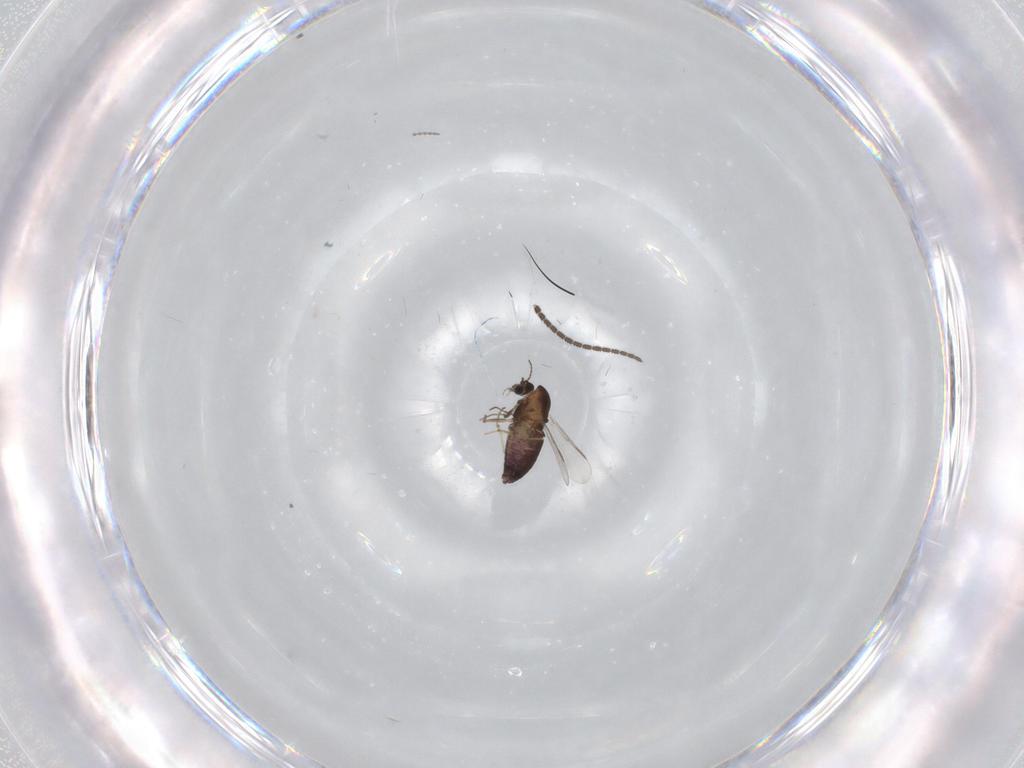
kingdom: Animalia
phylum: Arthropoda
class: Insecta
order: Diptera
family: Chironomidae
